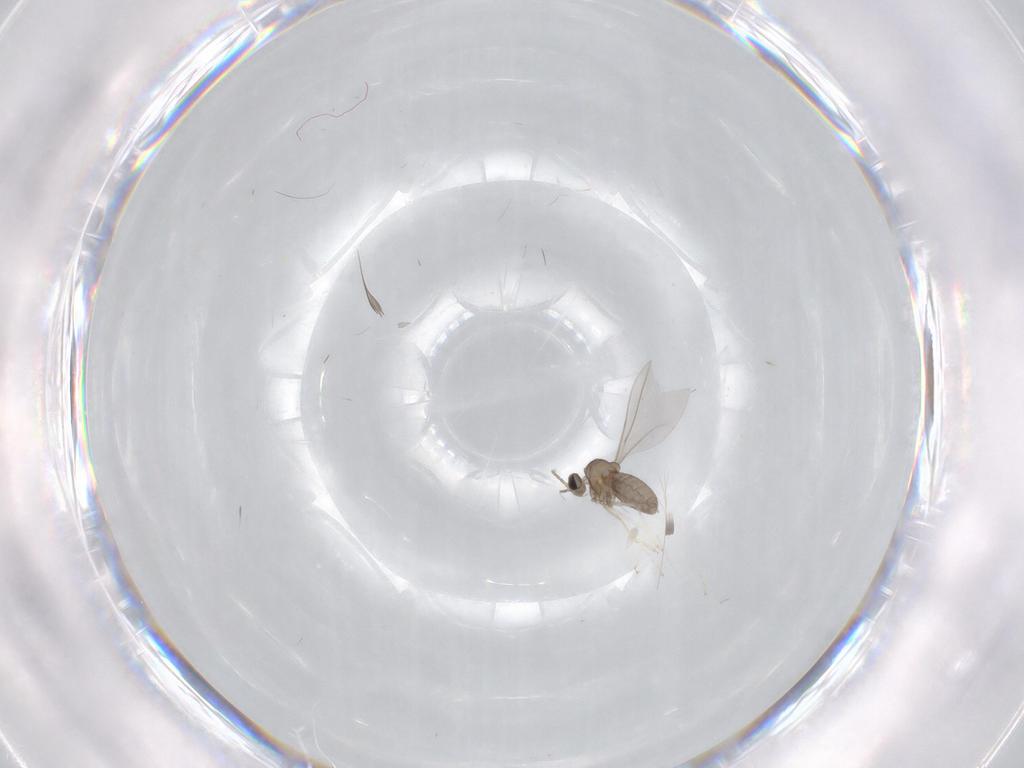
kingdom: Animalia
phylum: Arthropoda
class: Insecta
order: Diptera
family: Cecidomyiidae
